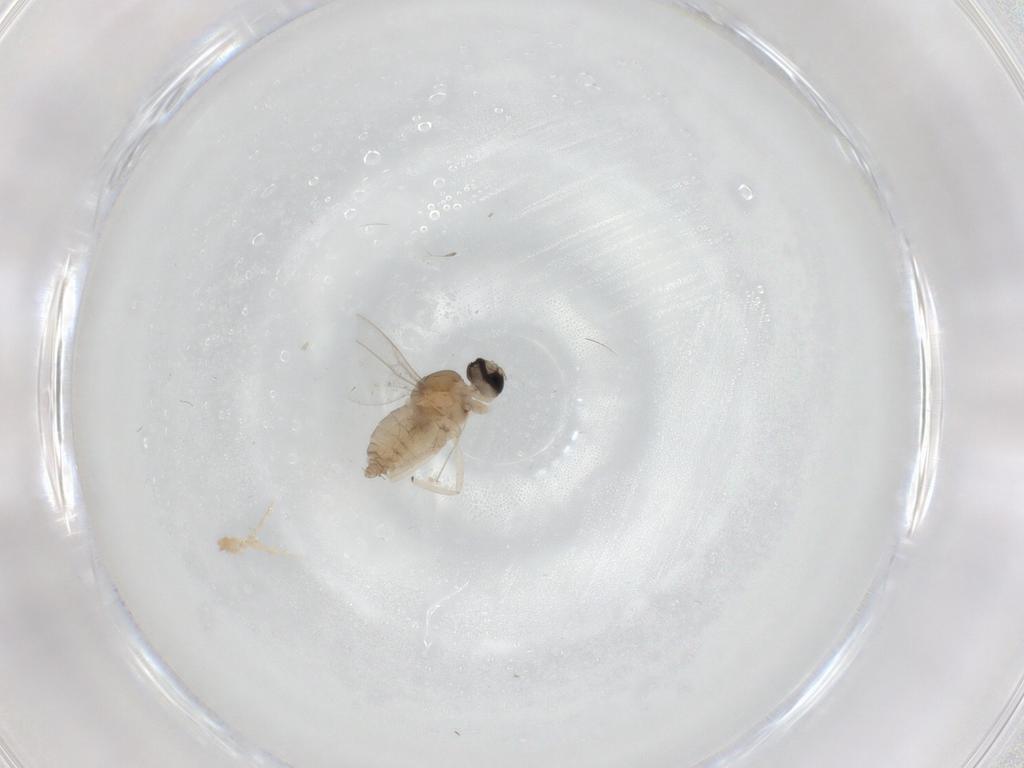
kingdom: Animalia
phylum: Arthropoda
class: Insecta
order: Diptera
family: Cecidomyiidae
